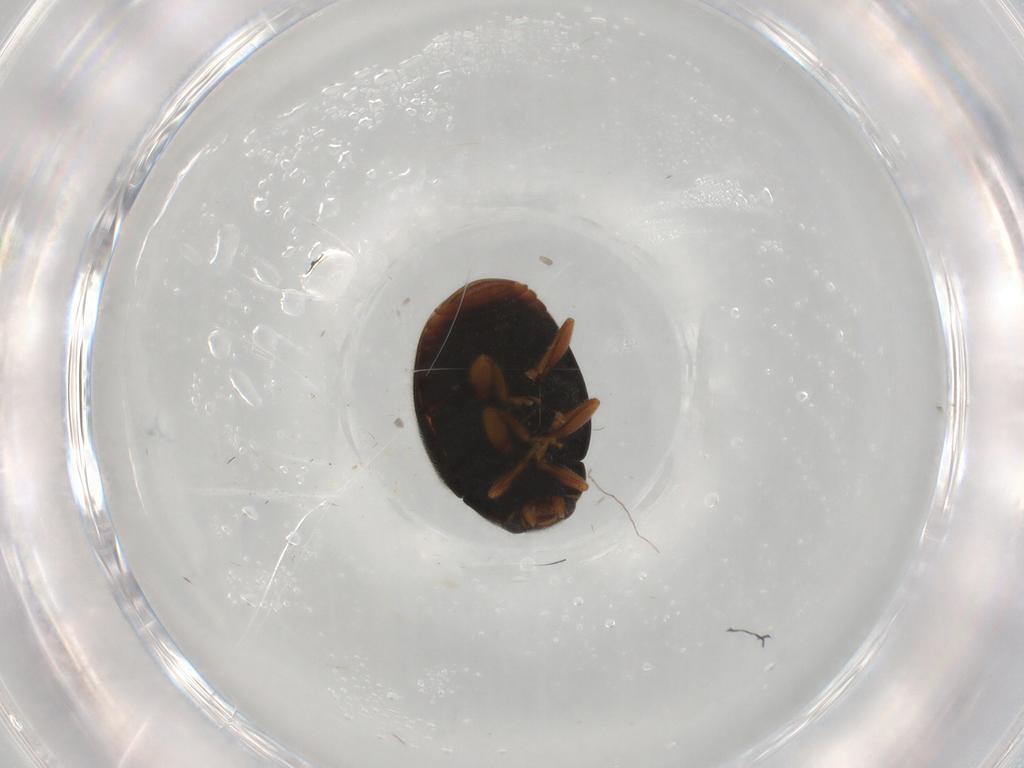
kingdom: Animalia
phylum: Arthropoda
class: Insecta
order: Coleoptera
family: Coccinellidae
